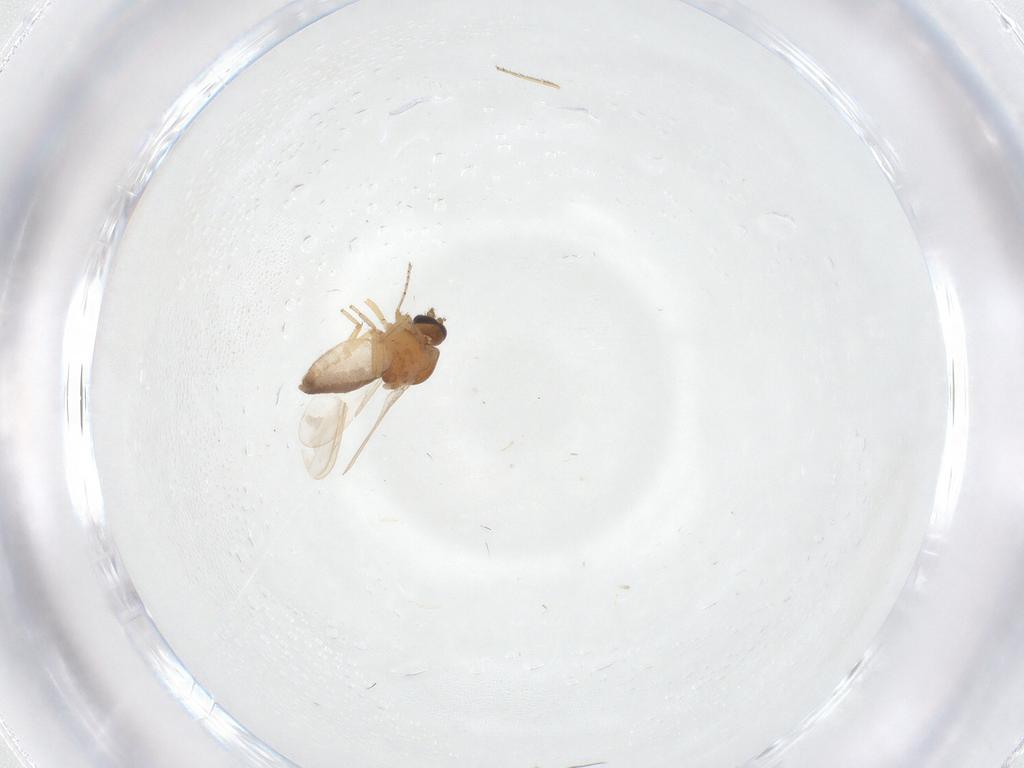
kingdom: Animalia
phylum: Arthropoda
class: Insecta
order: Diptera
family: Ceratopogonidae
